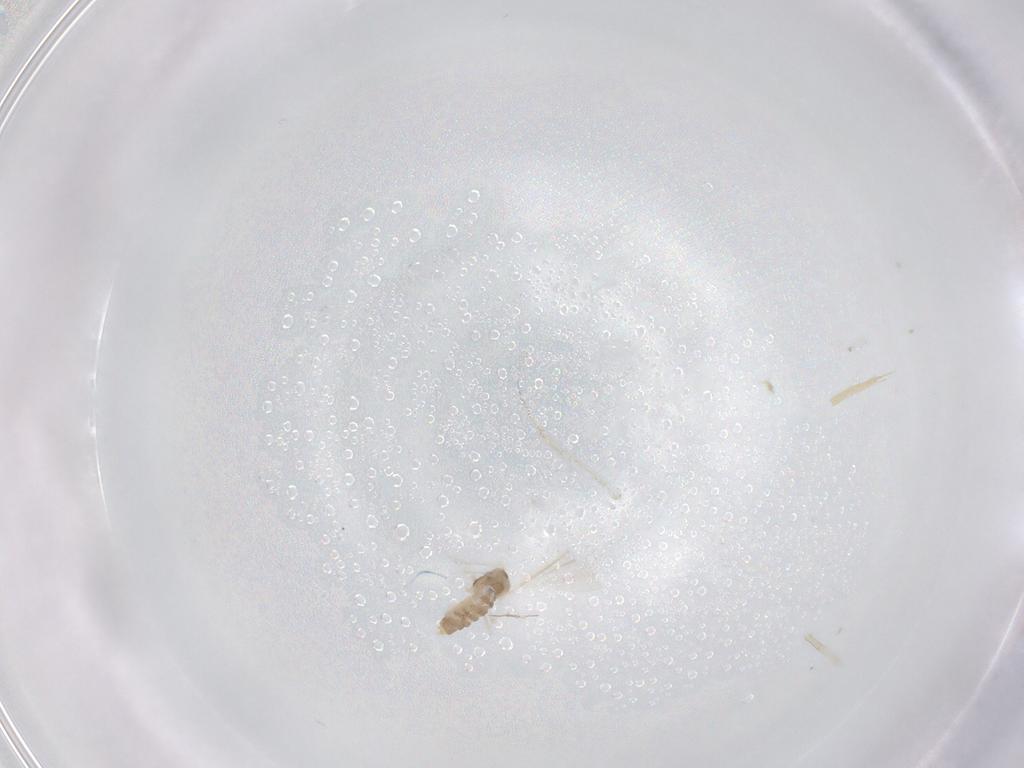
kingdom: Animalia
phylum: Arthropoda
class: Insecta
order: Diptera
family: Cecidomyiidae
